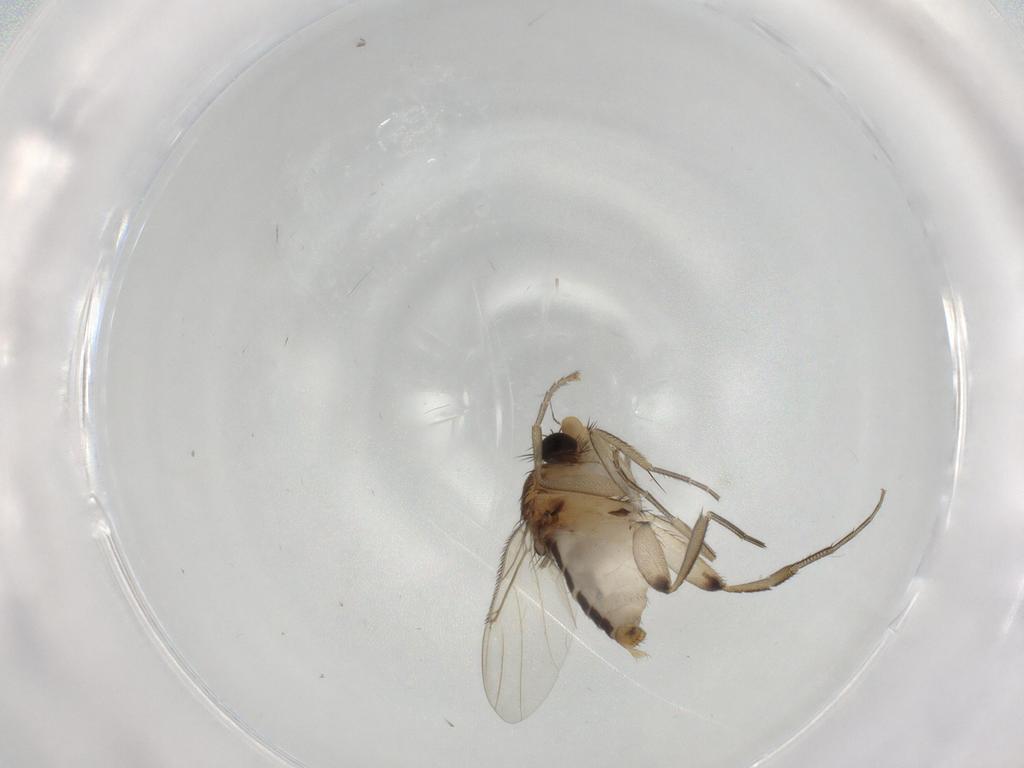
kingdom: Animalia
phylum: Arthropoda
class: Insecta
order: Diptera
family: Phoridae
